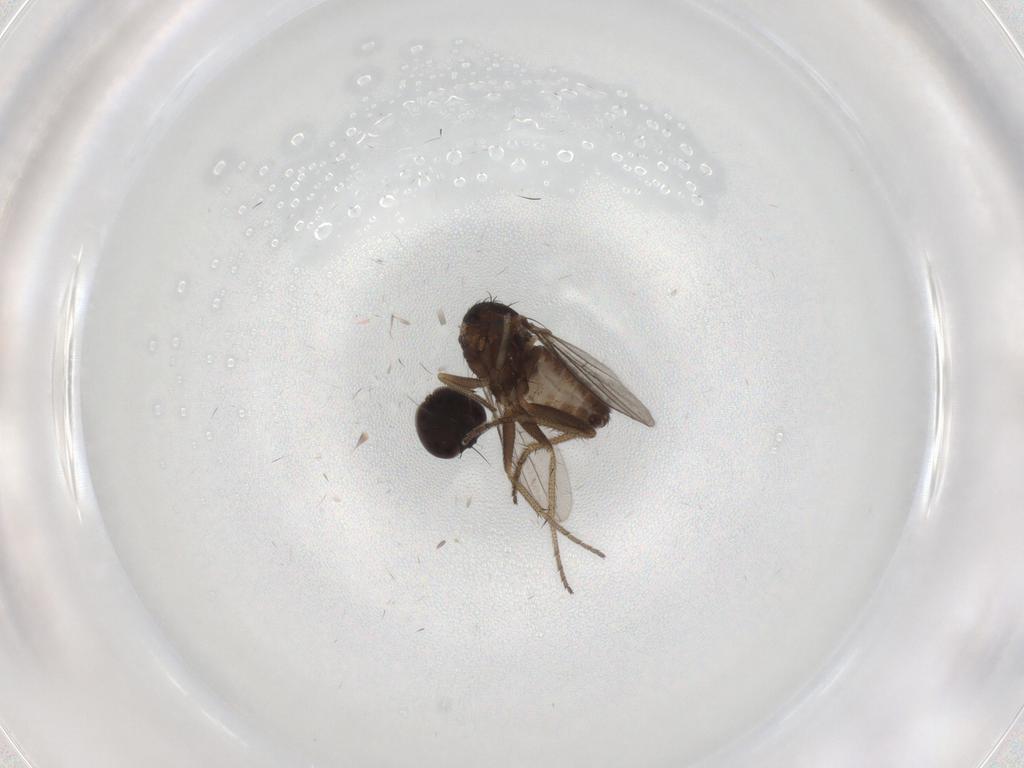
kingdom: Animalia
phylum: Arthropoda
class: Insecta
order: Diptera
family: Dolichopodidae
